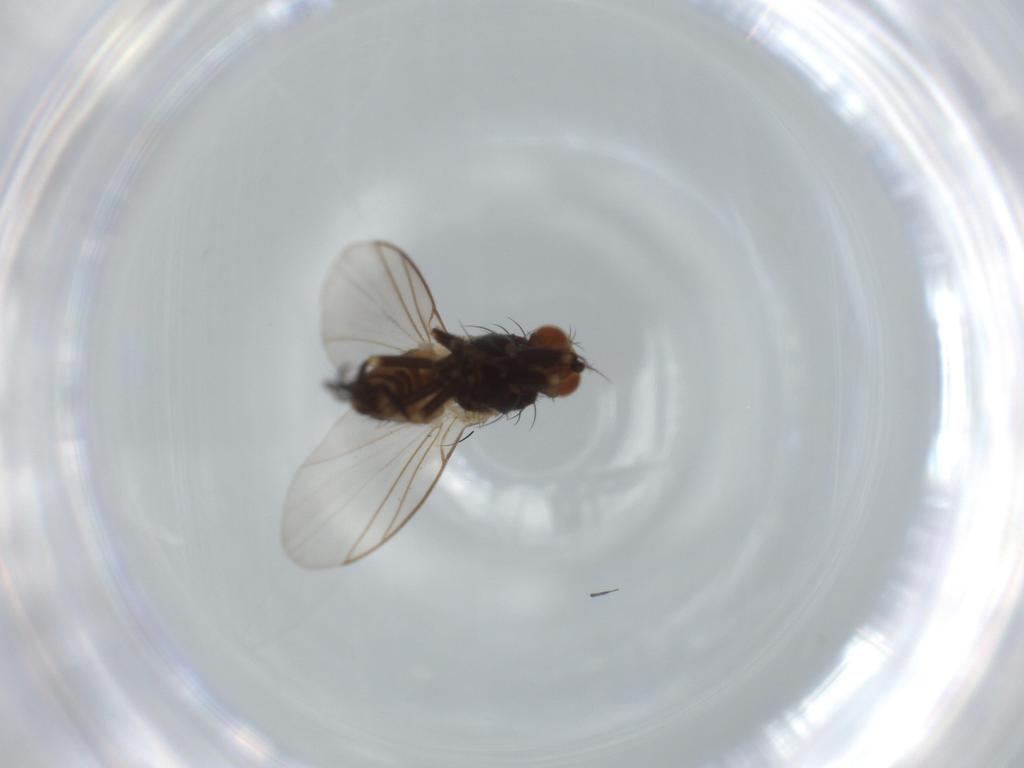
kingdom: Animalia
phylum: Arthropoda
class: Insecta
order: Diptera
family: Agromyzidae
